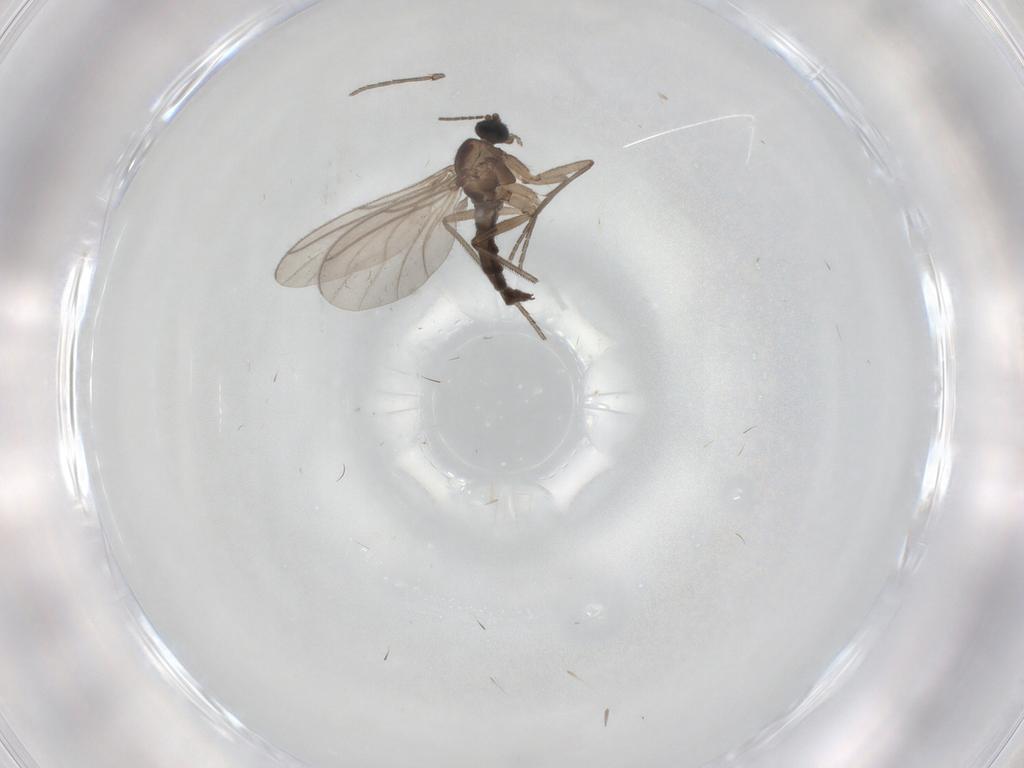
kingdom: Animalia
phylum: Arthropoda
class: Insecta
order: Diptera
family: Sciaridae
